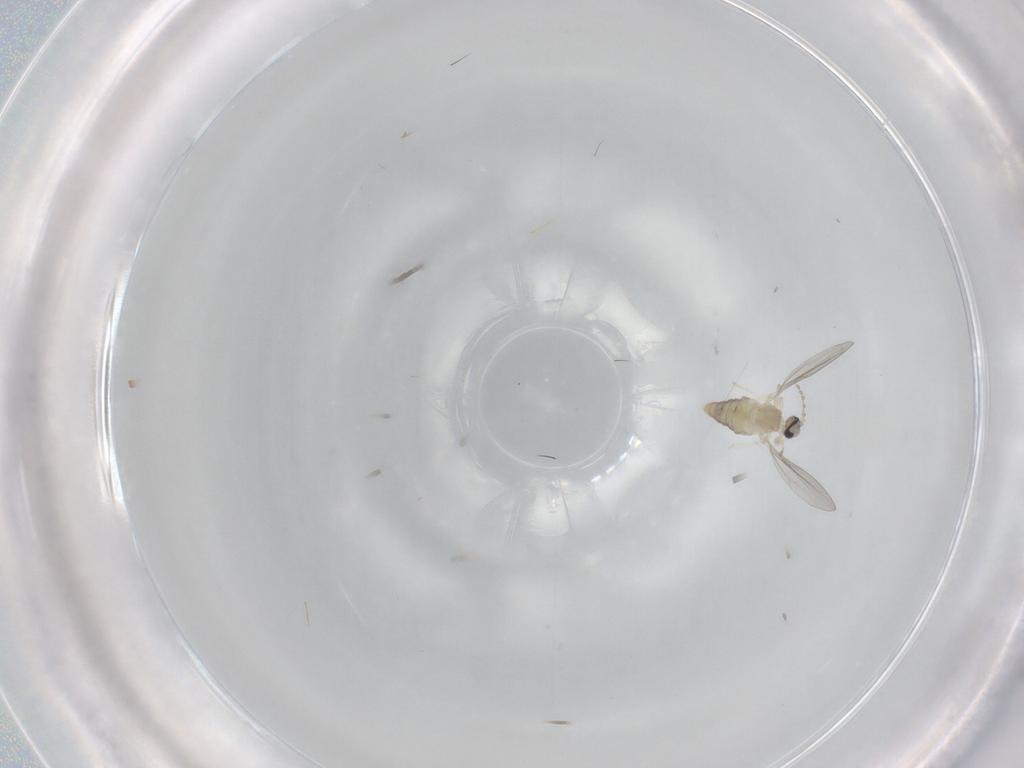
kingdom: Animalia
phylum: Arthropoda
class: Insecta
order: Diptera
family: Cecidomyiidae
